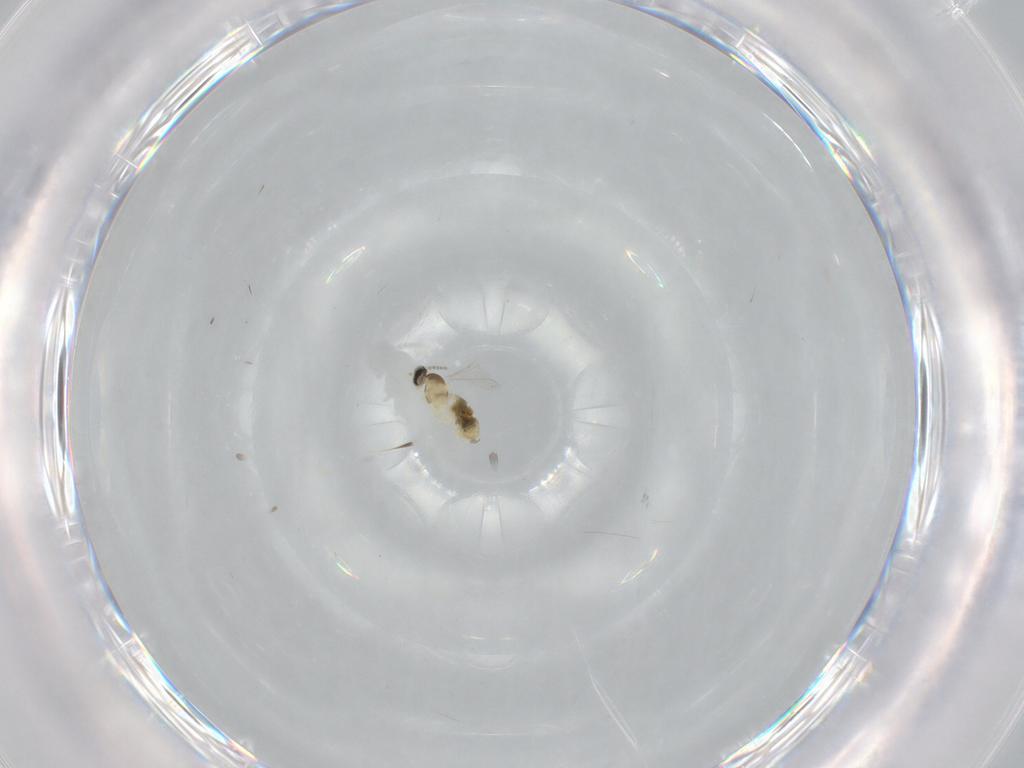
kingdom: Animalia
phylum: Arthropoda
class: Insecta
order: Diptera
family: Cecidomyiidae
